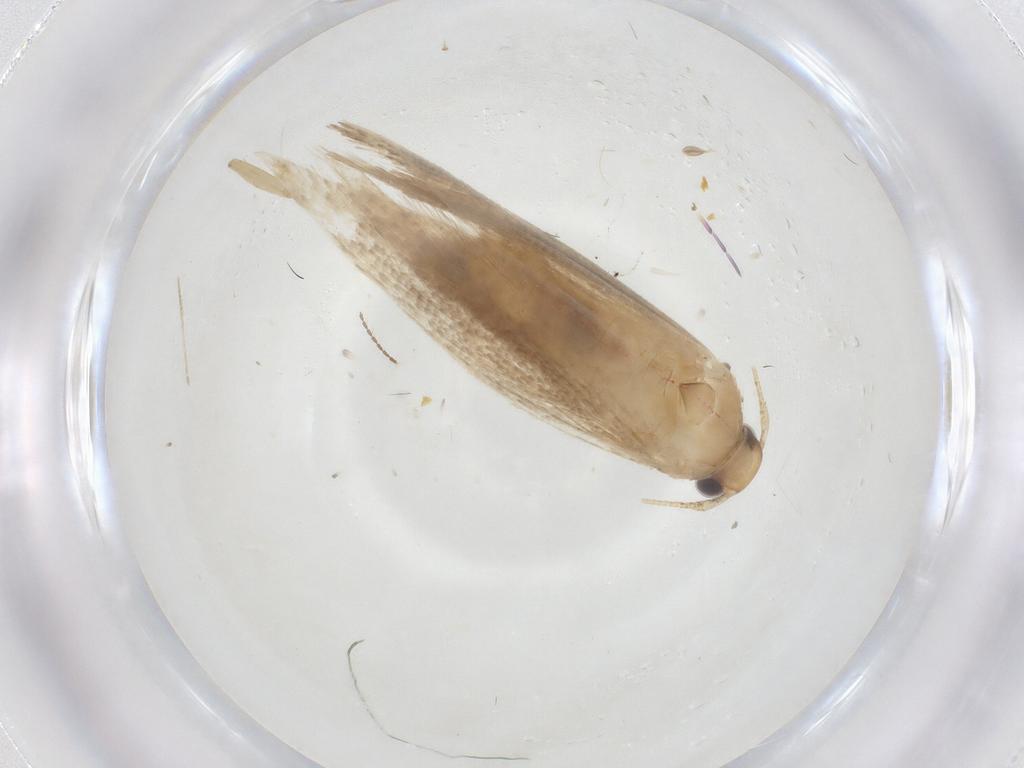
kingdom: Animalia
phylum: Arthropoda
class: Insecta
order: Lepidoptera
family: Gelechiidae
